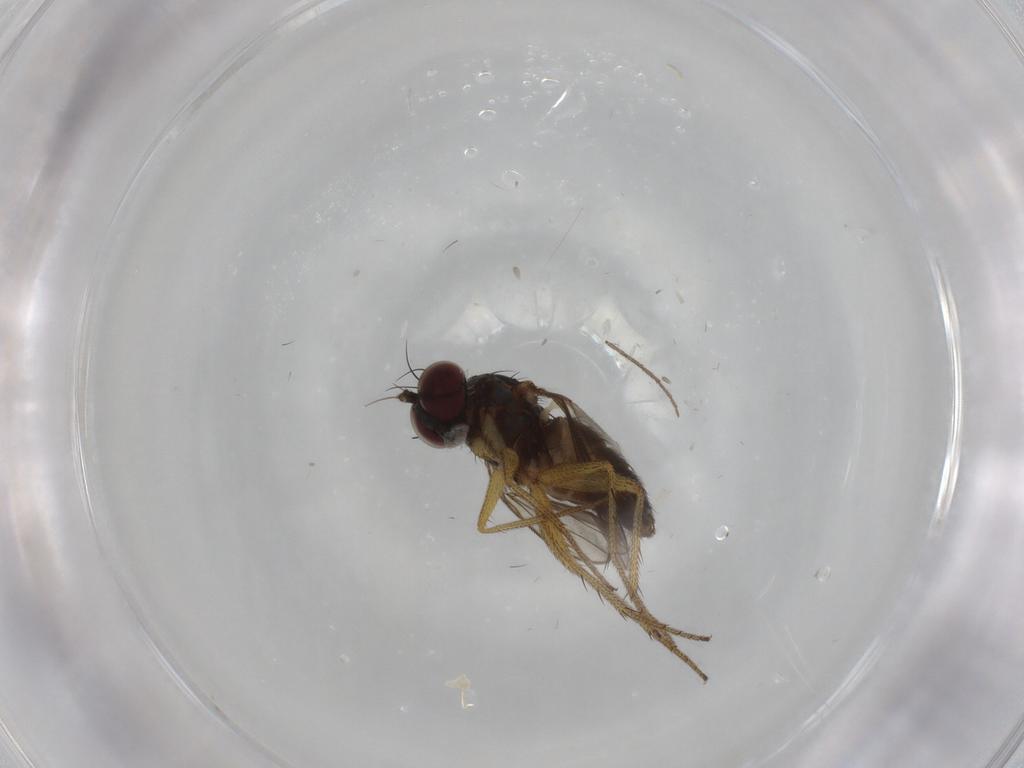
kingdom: Animalia
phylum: Arthropoda
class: Insecta
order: Diptera
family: Dolichopodidae
